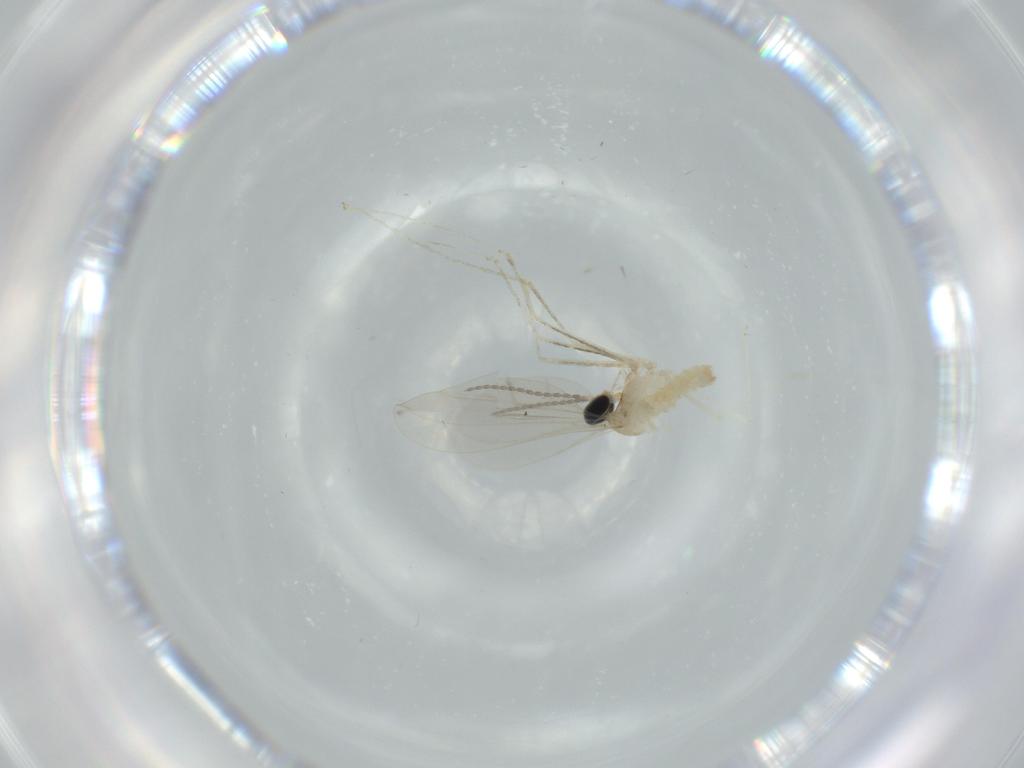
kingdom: Animalia
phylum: Arthropoda
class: Insecta
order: Diptera
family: Cecidomyiidae
